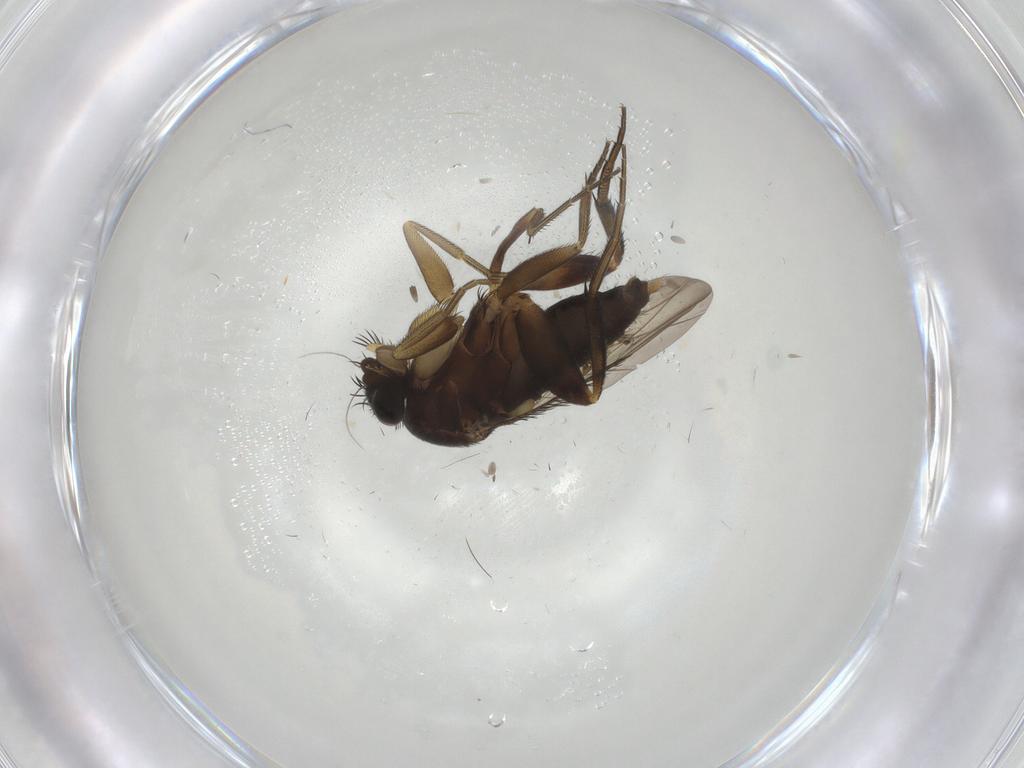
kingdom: Animalia
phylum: Arthropoda
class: Insecta
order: Diptera
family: Phoridae
